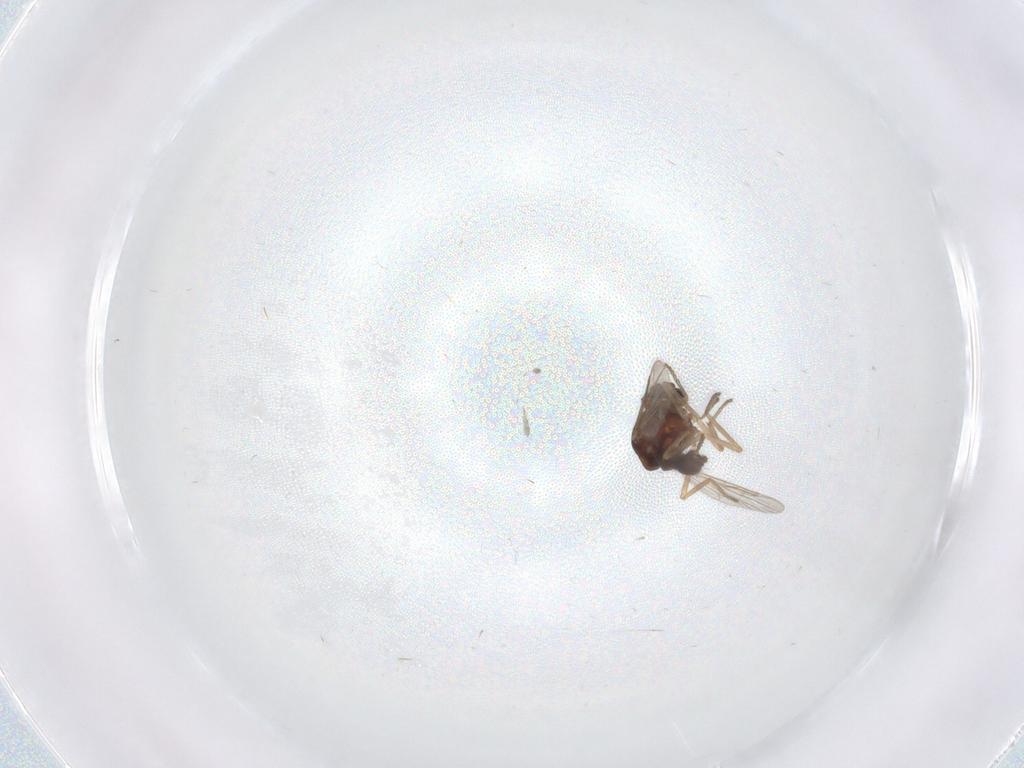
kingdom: Animalia
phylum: Arthropoda
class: Insecta
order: Diptera
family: Ceratopogonidae
